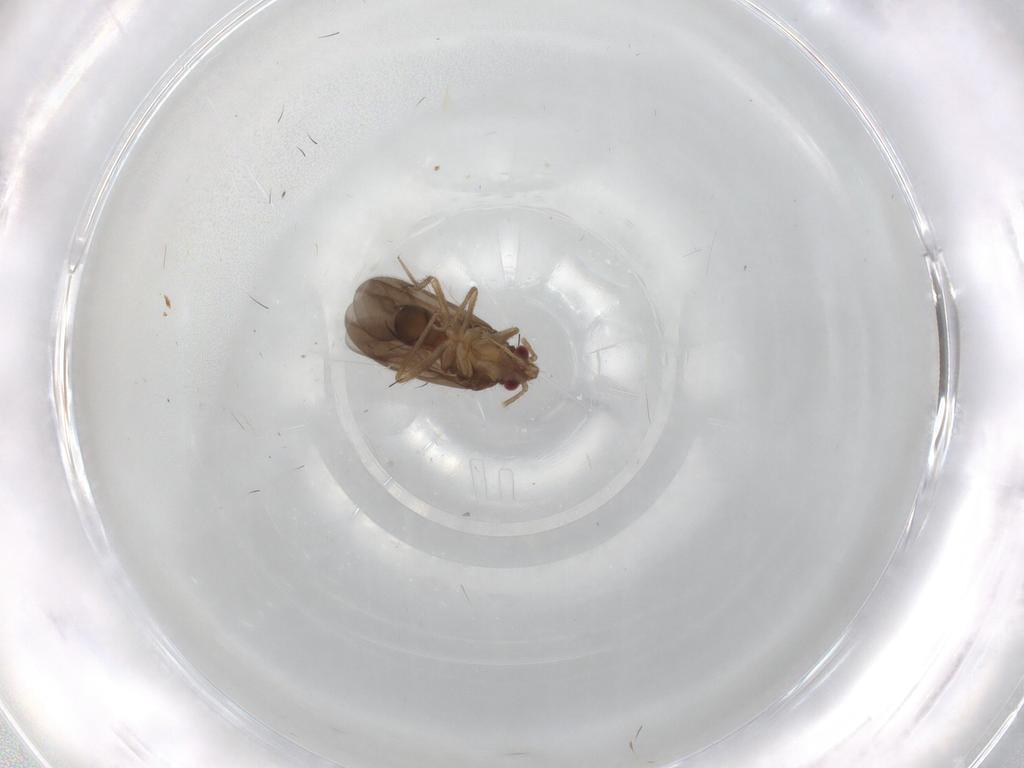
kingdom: Animalia
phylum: Arthropoda
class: Insecta
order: Hemiptera
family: Ceratocombidae
